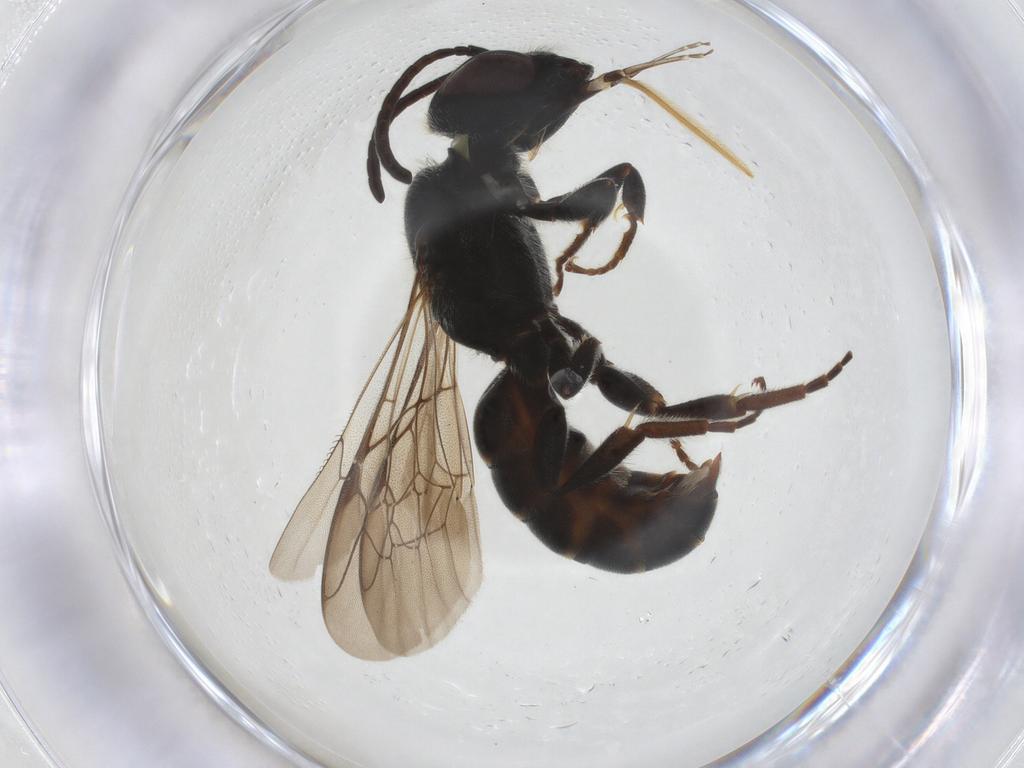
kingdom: Animalia
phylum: Arthropoda
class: Insecta
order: Hymenoptera
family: Megachilidae
